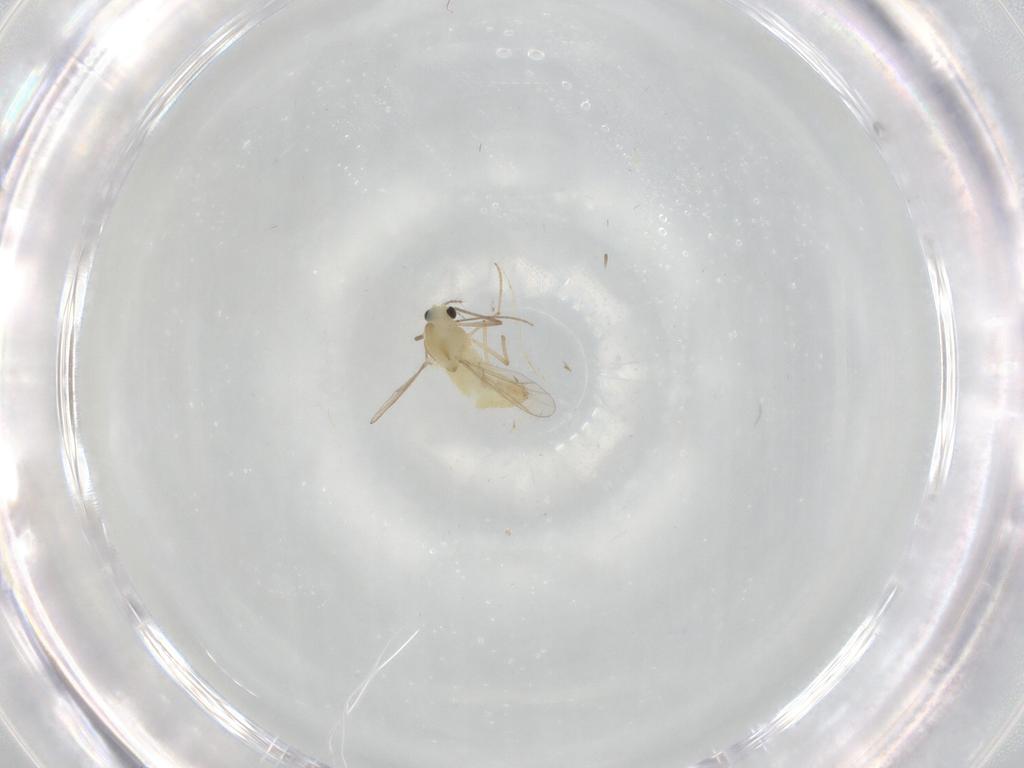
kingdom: Animalia
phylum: Arthropoda
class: Insecta
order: Diptera
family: Chironomidae
